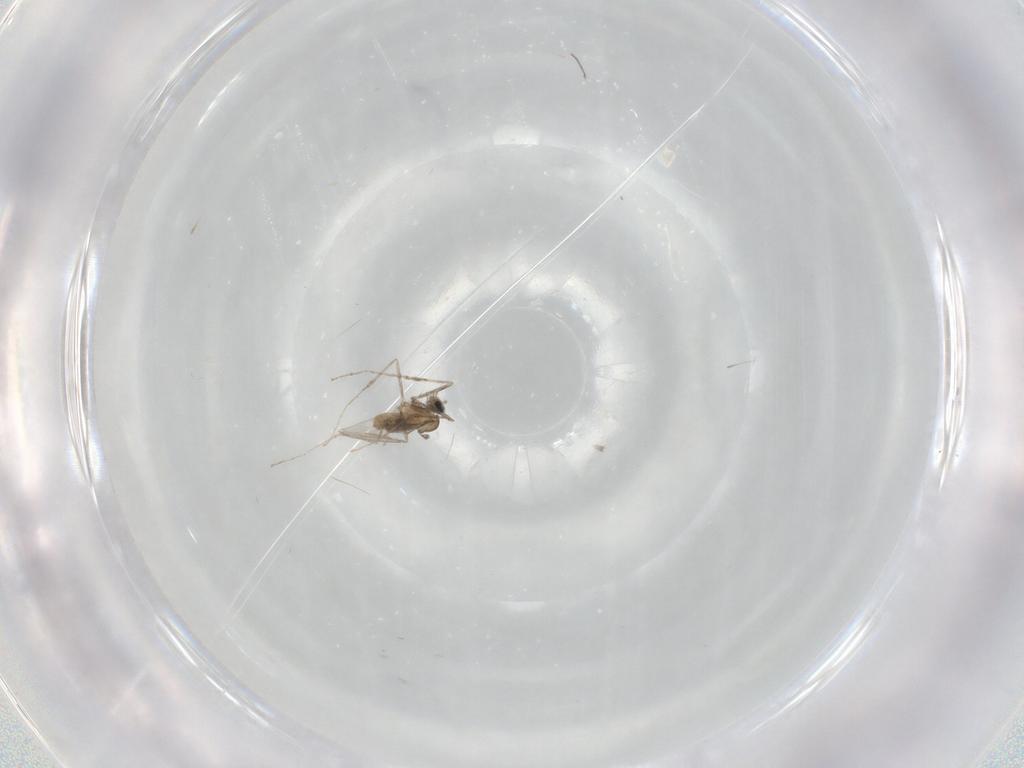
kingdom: Animalia
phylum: Arthropoda
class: Insecta
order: Diptera
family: Cecidomyiidae
